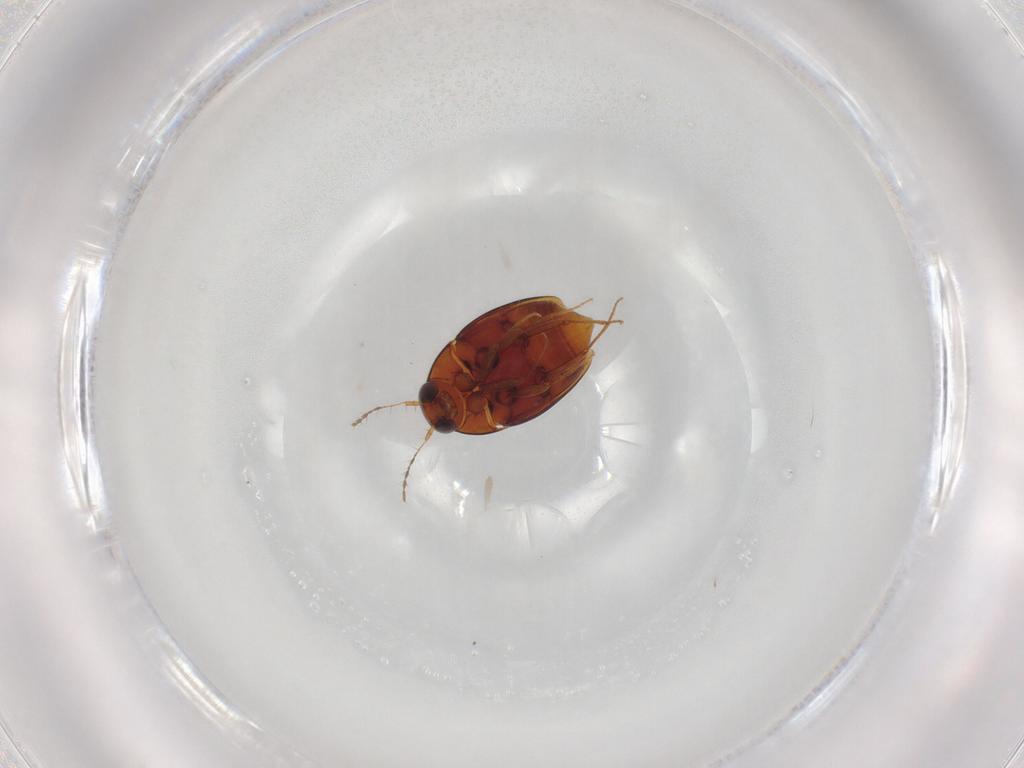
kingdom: Animalia
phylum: Arthropoda
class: Insecta
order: Coleoptera
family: Staphylinidae
